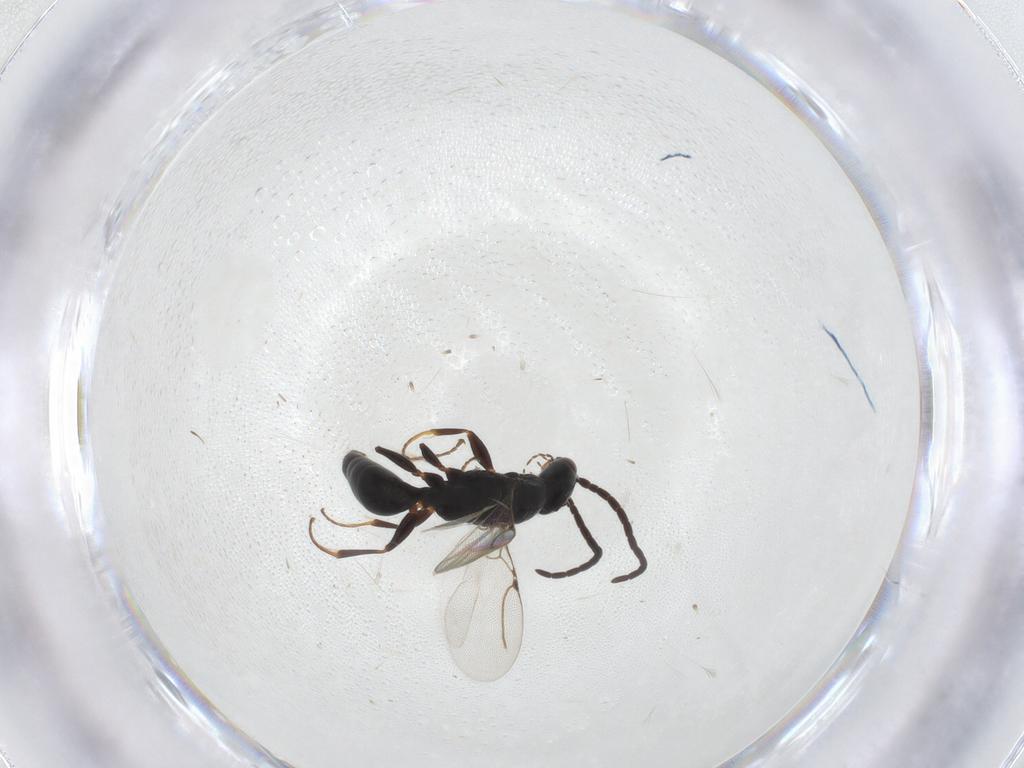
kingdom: Animalia
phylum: Arthropoda
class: Insecta
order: Hymenoptera
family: Bethylidae
